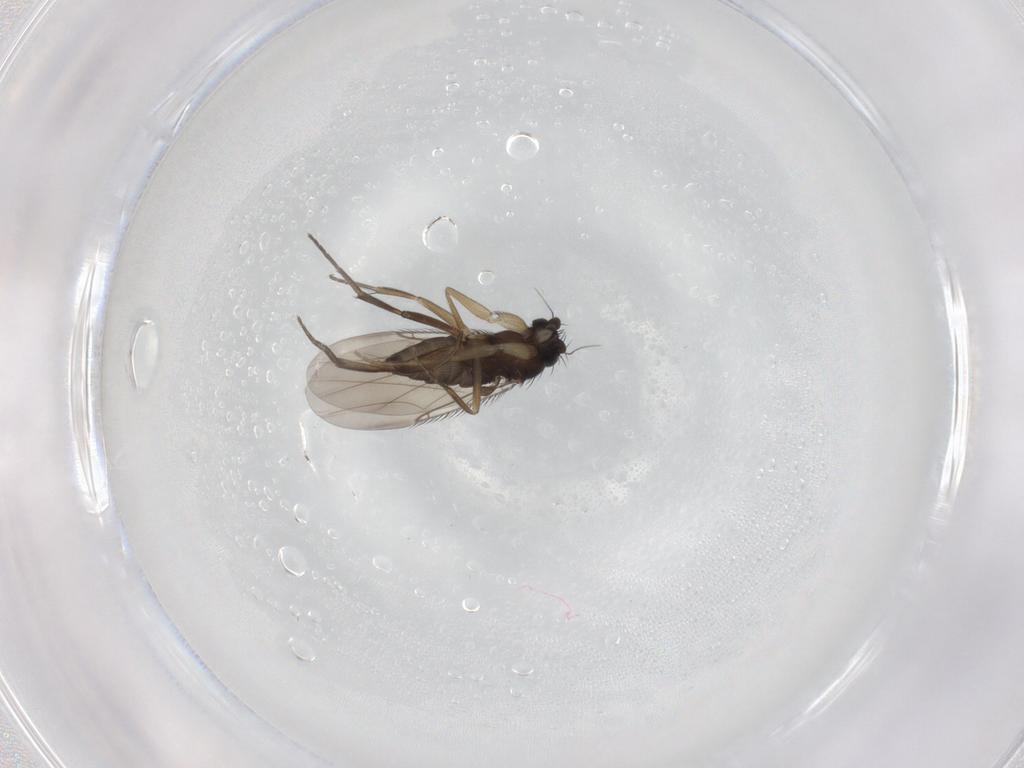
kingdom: Animalia
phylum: Arthropoda
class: Insecta
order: Diptera
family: Phoridae
